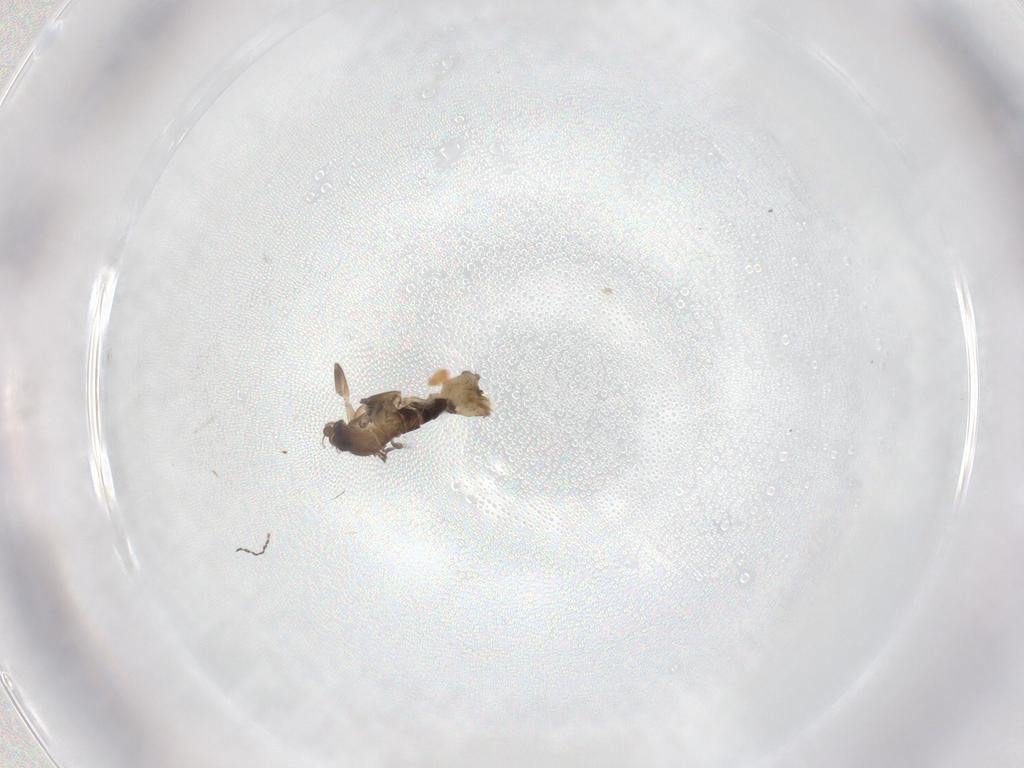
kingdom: Animalia
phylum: Arthropoda
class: Insecta
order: Diptera
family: Cecidomyiidae
